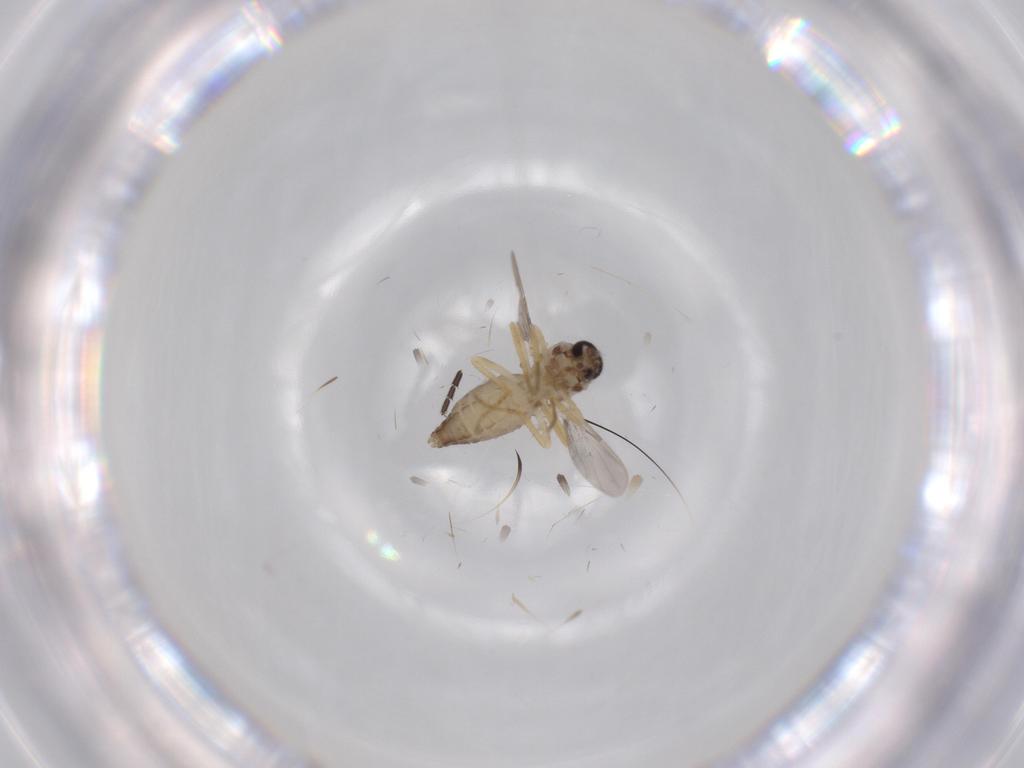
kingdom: Animalia
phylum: Arthropoda
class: Insecta
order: Diptera
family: Ceratopogonidae
